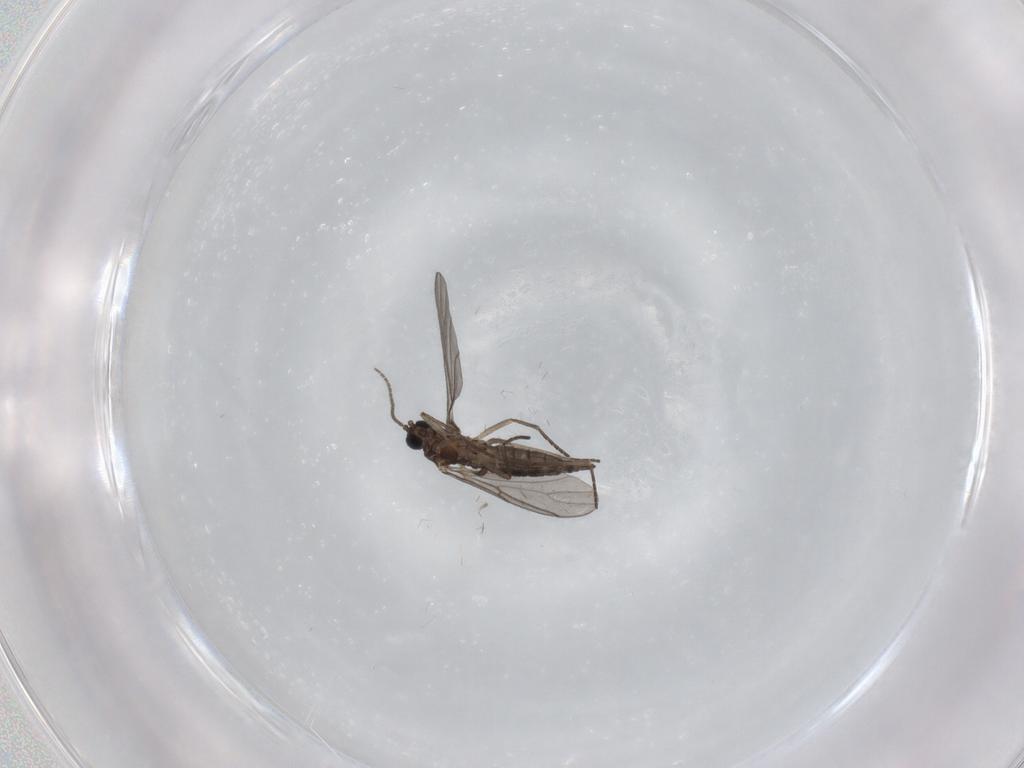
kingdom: Animalia
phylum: Arthropoda
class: Insecta
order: Diptera
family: Sciaridae
